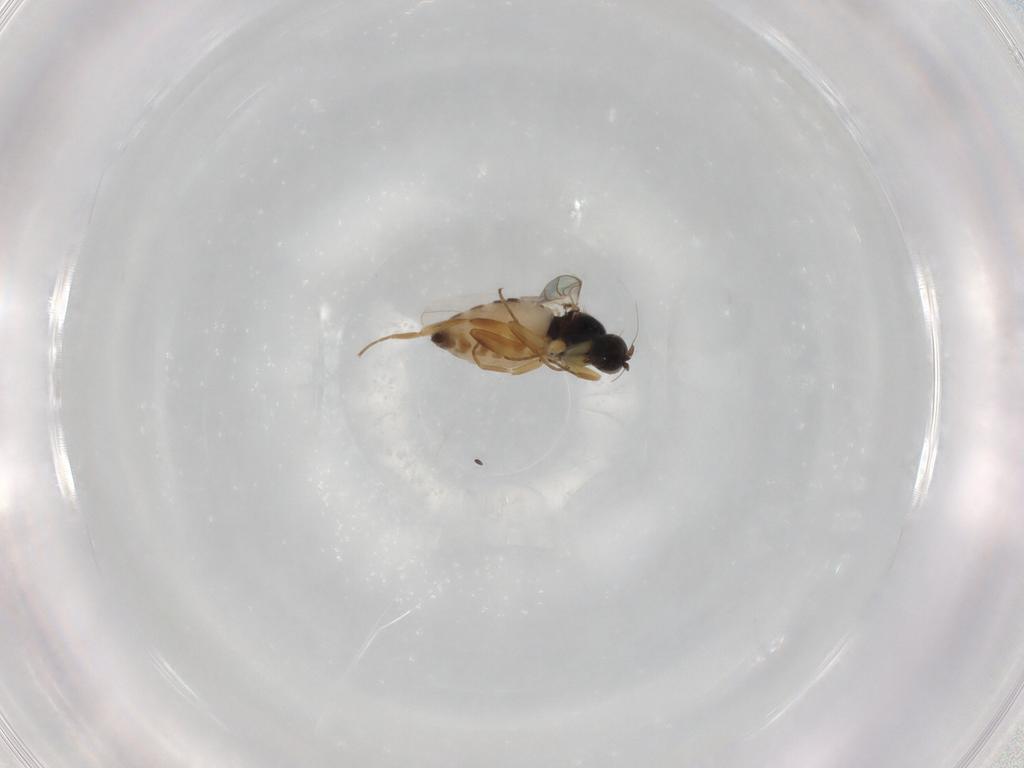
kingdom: Animalia
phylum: Arthropoda
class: Insecta
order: Diptera
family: Hybotidae
